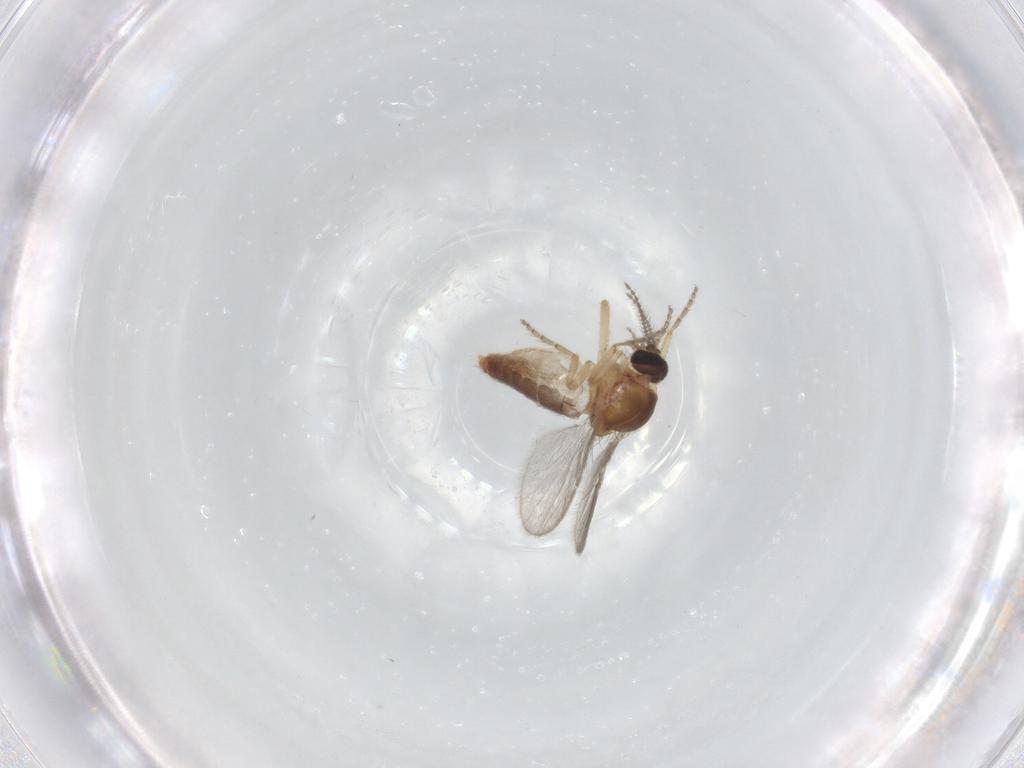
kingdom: Animalia
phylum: Arthropoda
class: Insecta
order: Diptera
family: Ceratopogonidae
